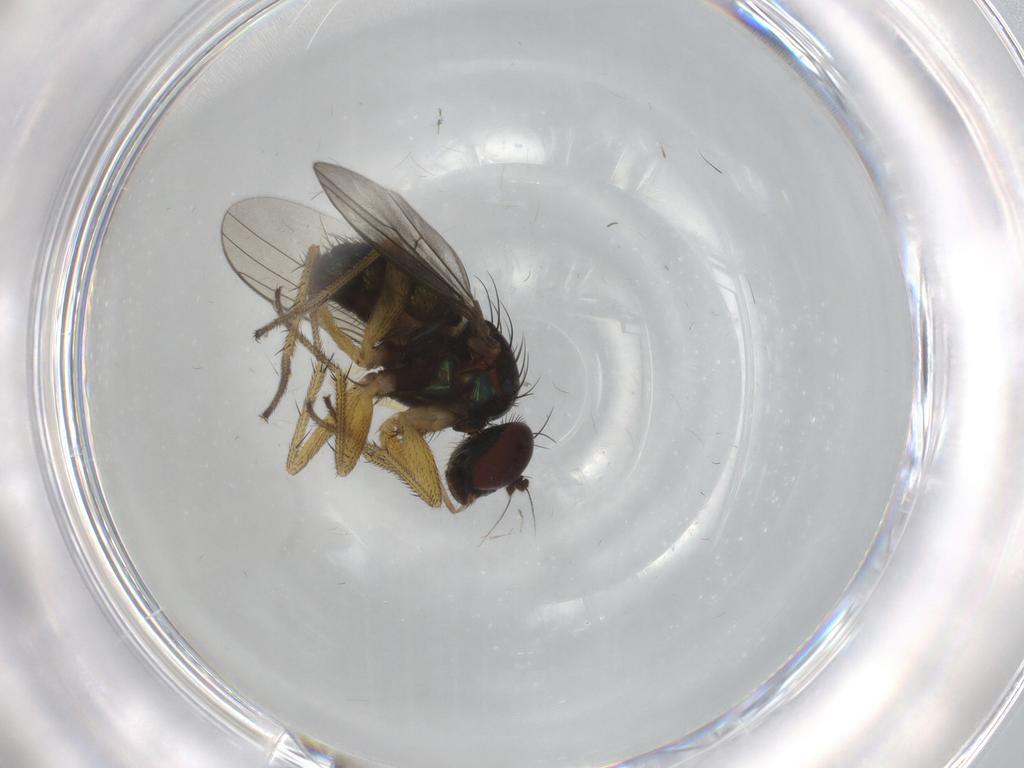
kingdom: Animalia
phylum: Arthropoda
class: Insecta
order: Diptera
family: Dolichopodidae
